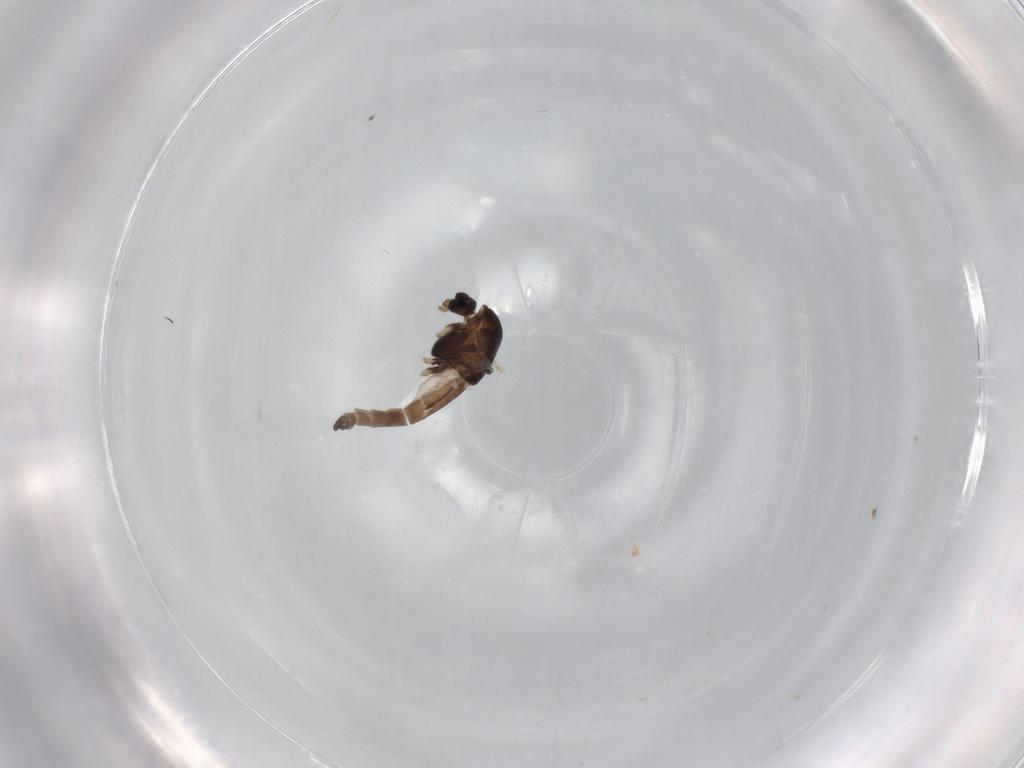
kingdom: Animalia
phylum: Arthropoda
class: Insecta
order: Diptera
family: Chironomidae
